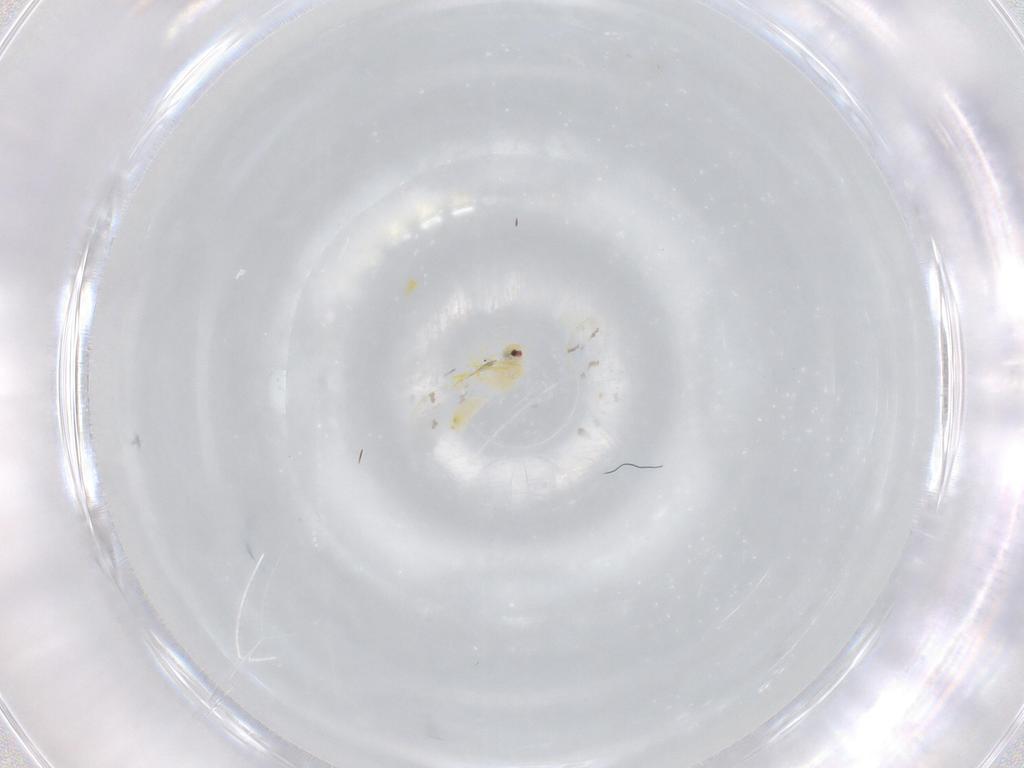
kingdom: Animalia
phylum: Arthropoda
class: Insecta
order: Hemiptera
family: Aleyrodidae
